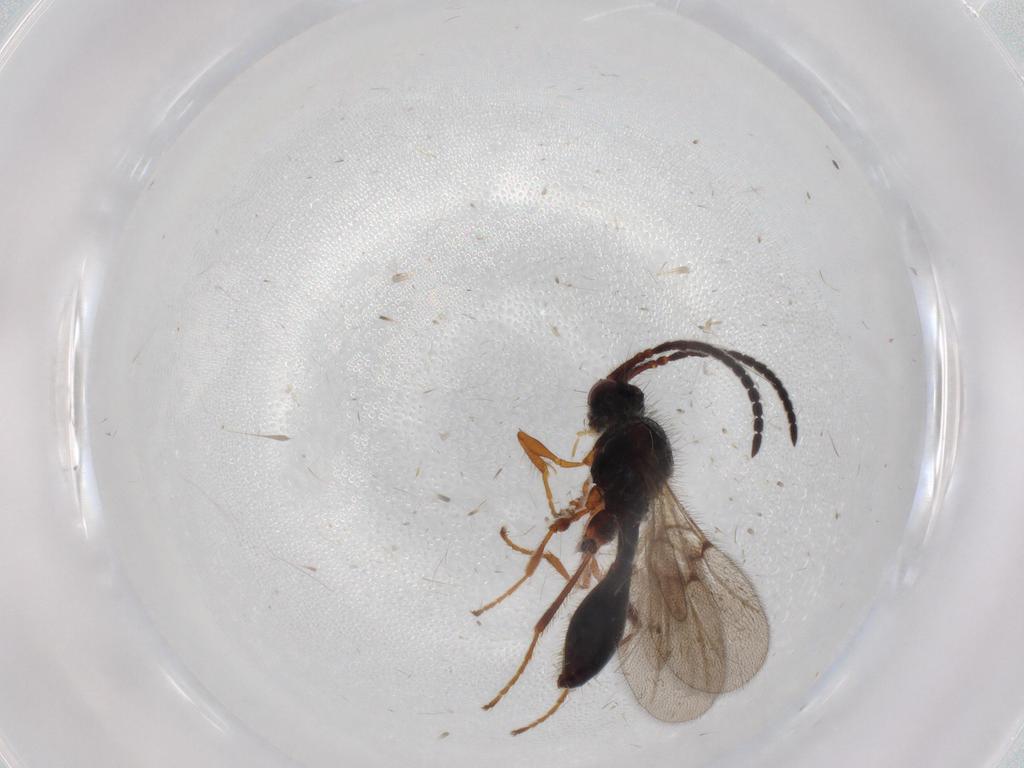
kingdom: Animalia
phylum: Arthropoda
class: Insecta
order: Hymenoptera
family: Diapriidae
